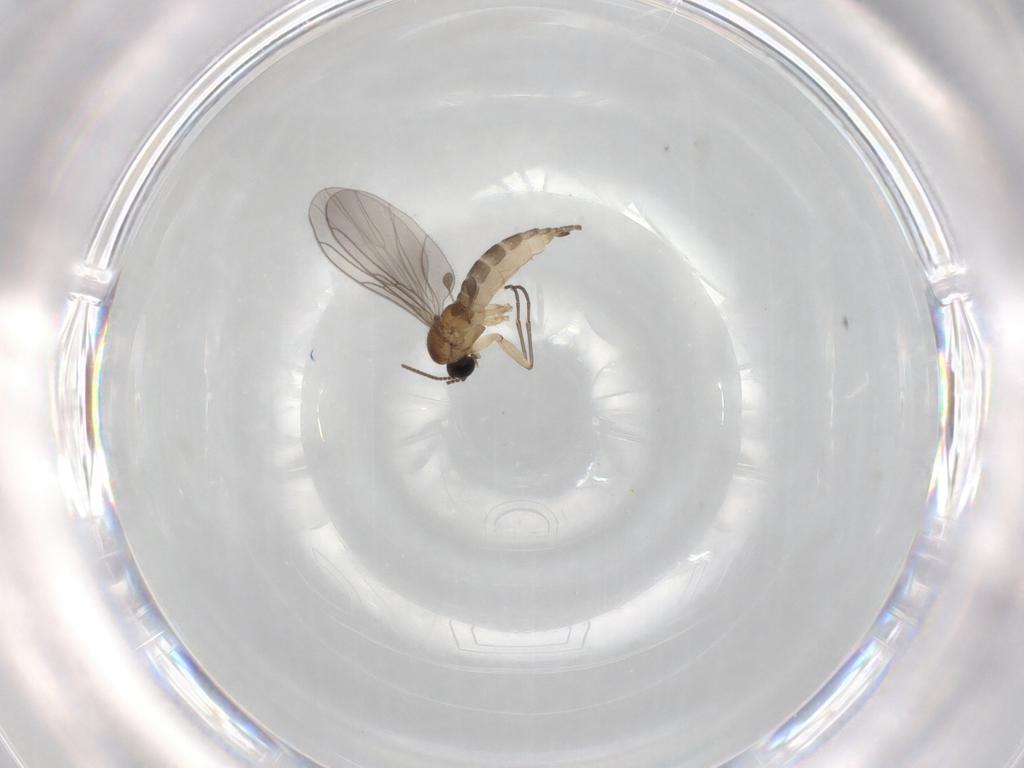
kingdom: Animalia
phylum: Arthropoda
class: Insecta
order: Diptera
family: Sciaridae
